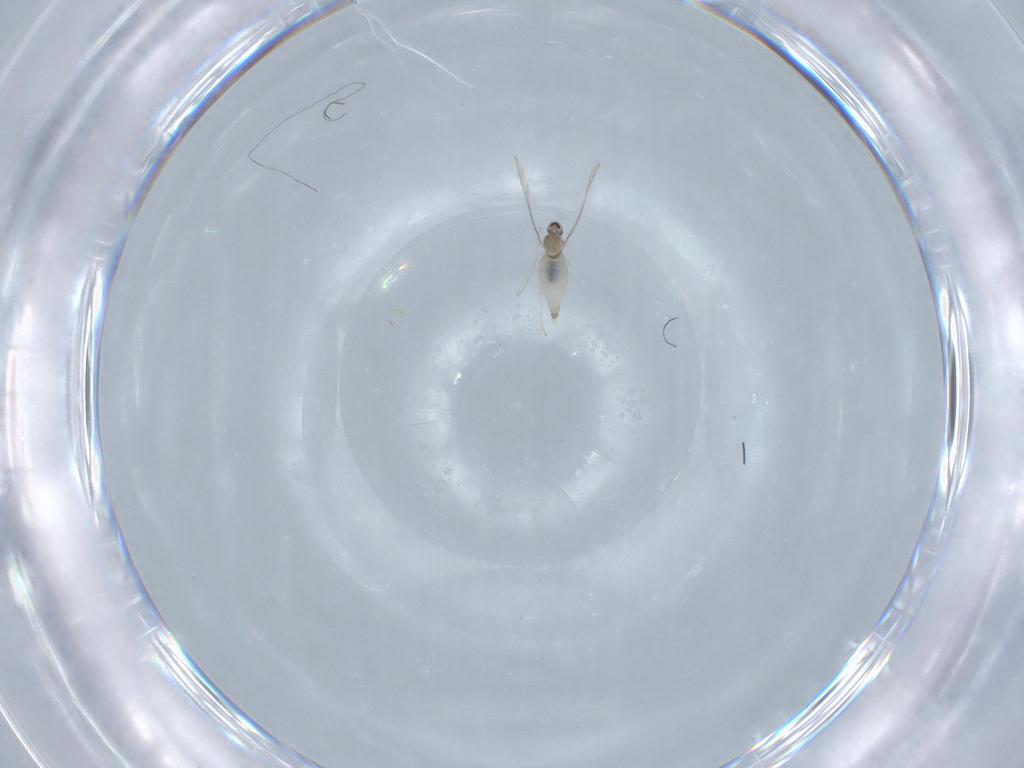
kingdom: Animalia
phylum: Arthropoda
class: Insecta
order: Diptera
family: Cecidomyiidae
